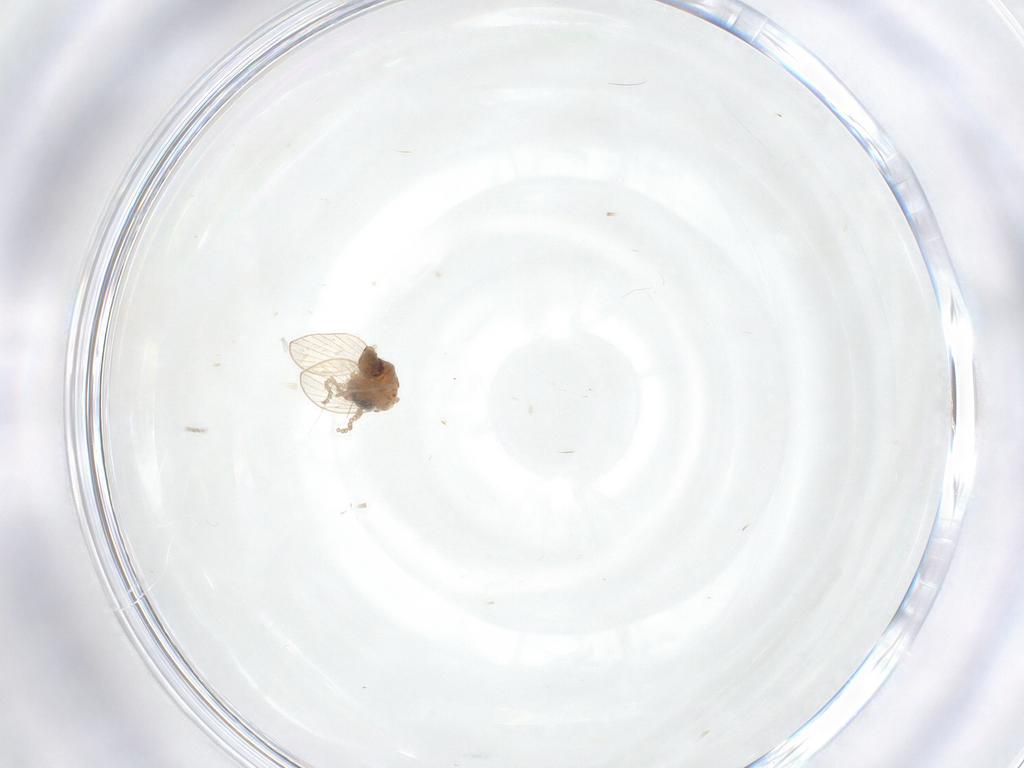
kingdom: Animalia
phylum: Arthropoda
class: Insecta
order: Diptera
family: Psychodidae
